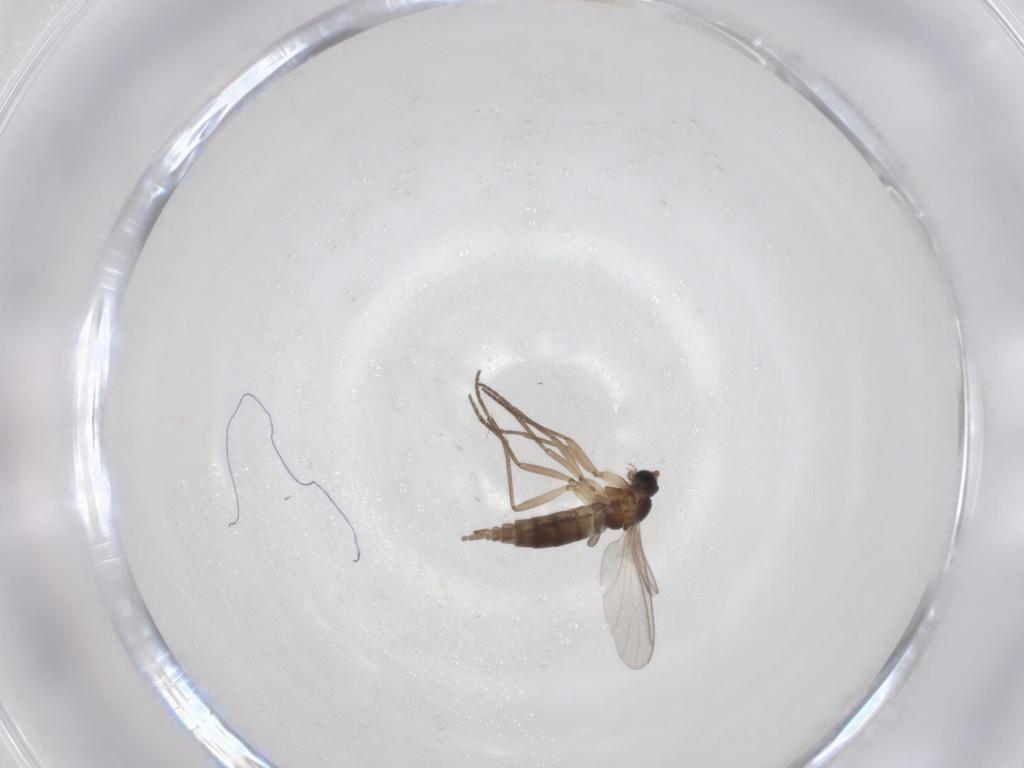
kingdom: Animalia
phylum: Arthropoda
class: Insecta
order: Diptera
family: Sciaridae
